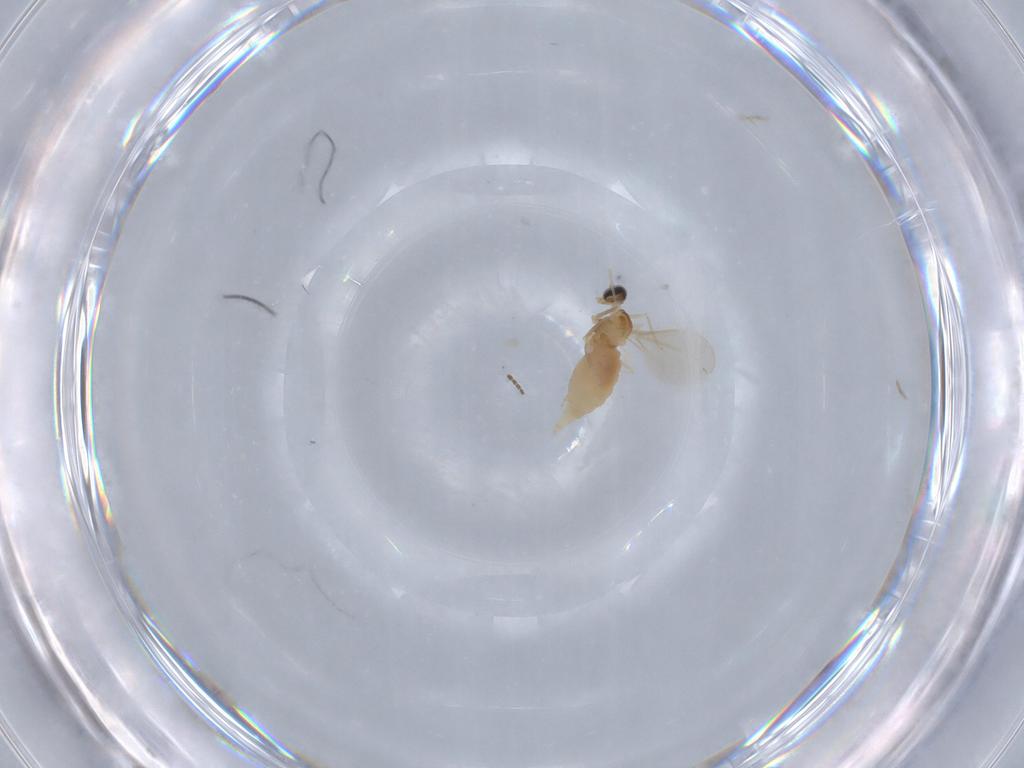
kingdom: Animalia
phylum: Arthropoda
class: Insecta
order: Diptera
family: Cecidomyiidae
